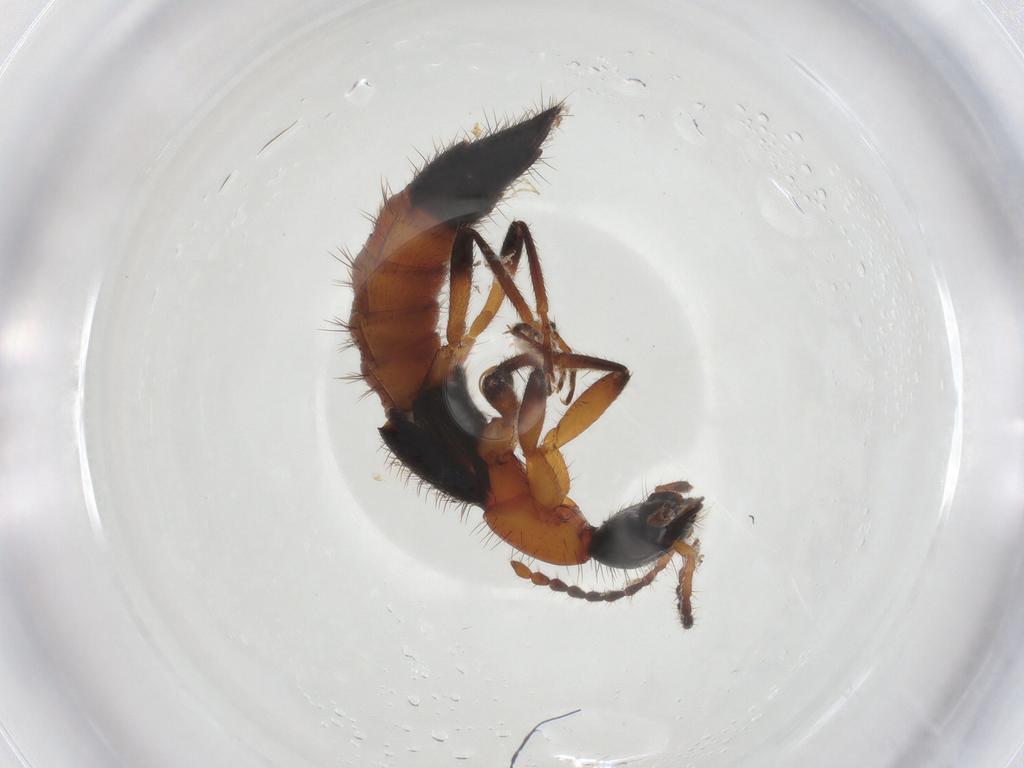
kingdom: Animalia
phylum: Arthropoda
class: Insecta
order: Coleoptera
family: Staphylinidae
